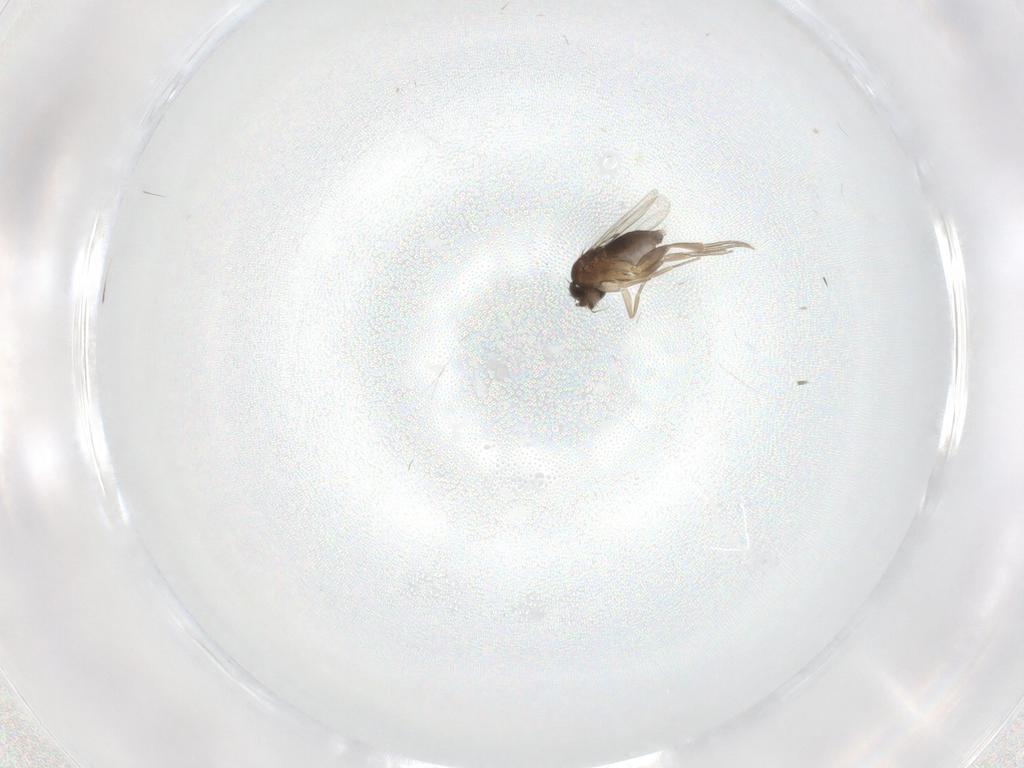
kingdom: Animalia
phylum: Arthropoda
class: Insecta
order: Diptera
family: Phoridae
